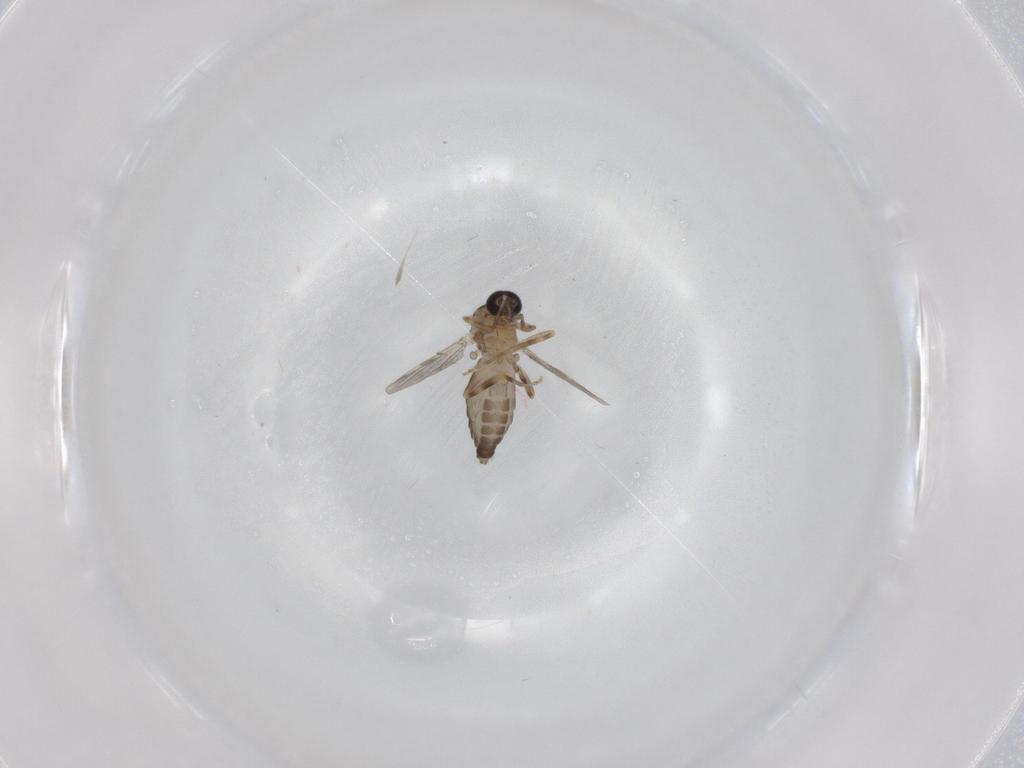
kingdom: Animalia
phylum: Arthropoda
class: Insecta
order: Diptera
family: Ceratopogonidae
